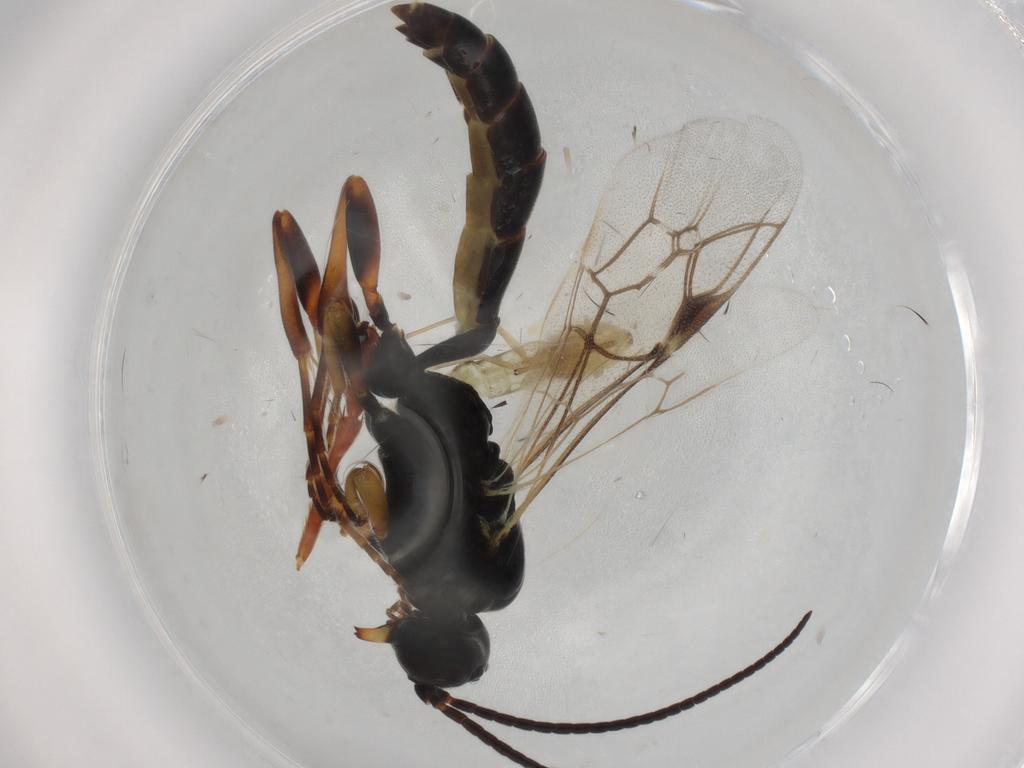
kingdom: Animalia
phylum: Arthropoda
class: Insecta
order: Hymenoptera
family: Ichneumonidae
